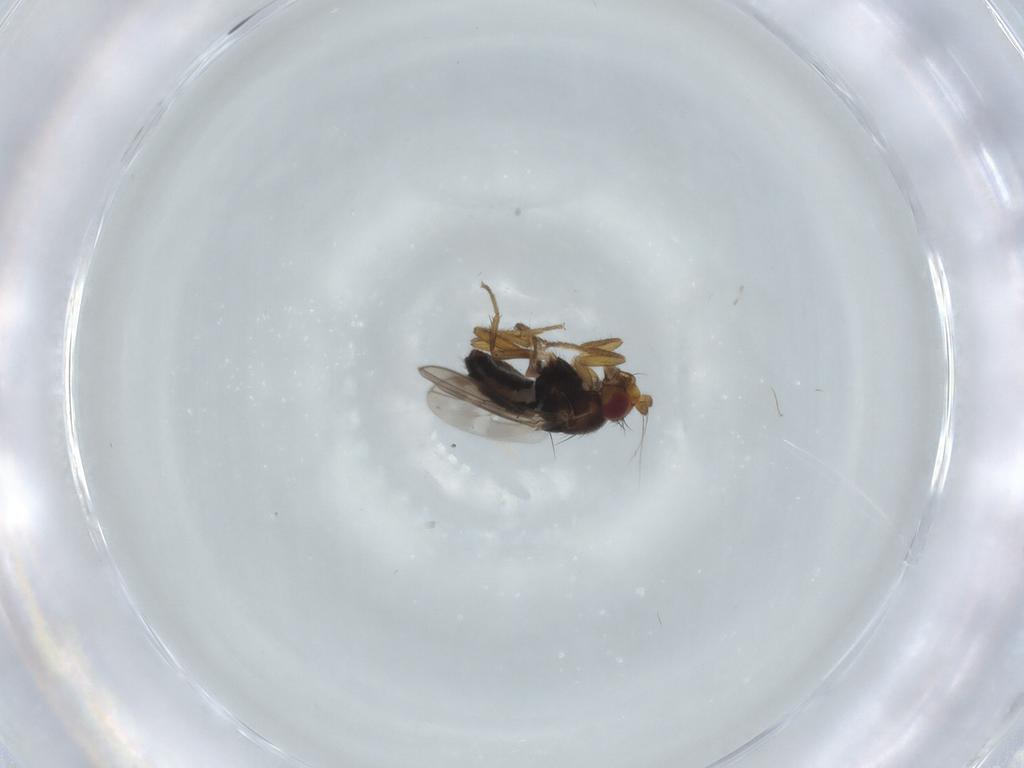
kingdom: Animalia
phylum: Arthropoda
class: Insecta
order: Diptera
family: Sphaeroceridae
